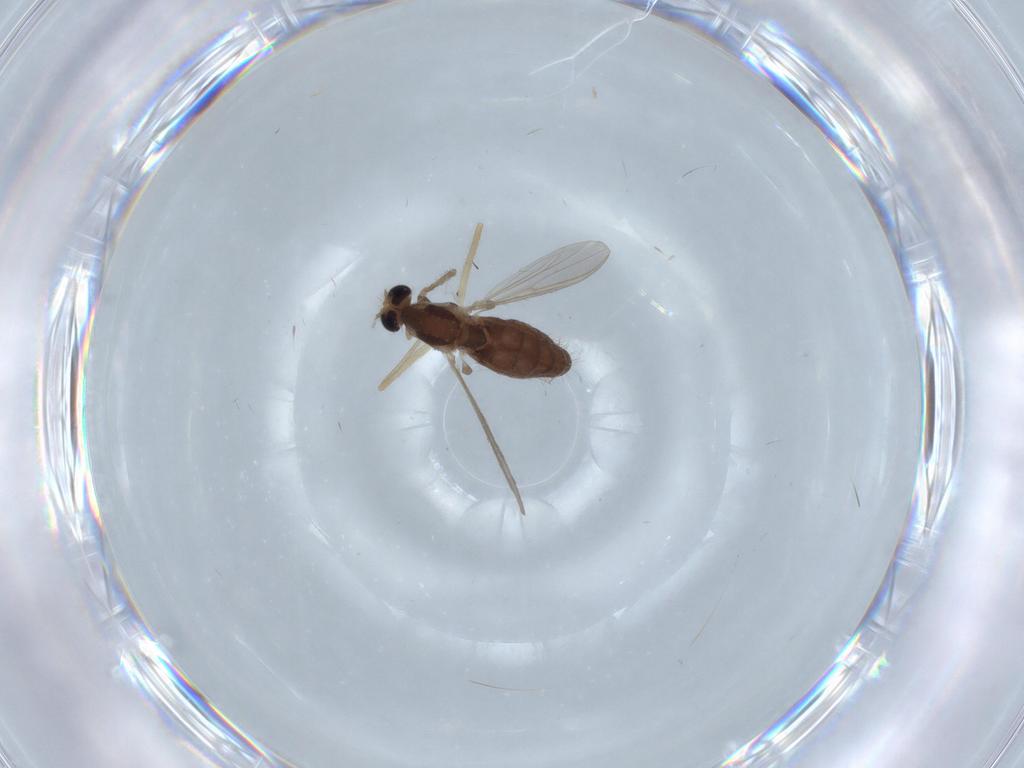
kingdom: Animalia
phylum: Arthropoda
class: Insecta
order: Diptera
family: Chironomidae
